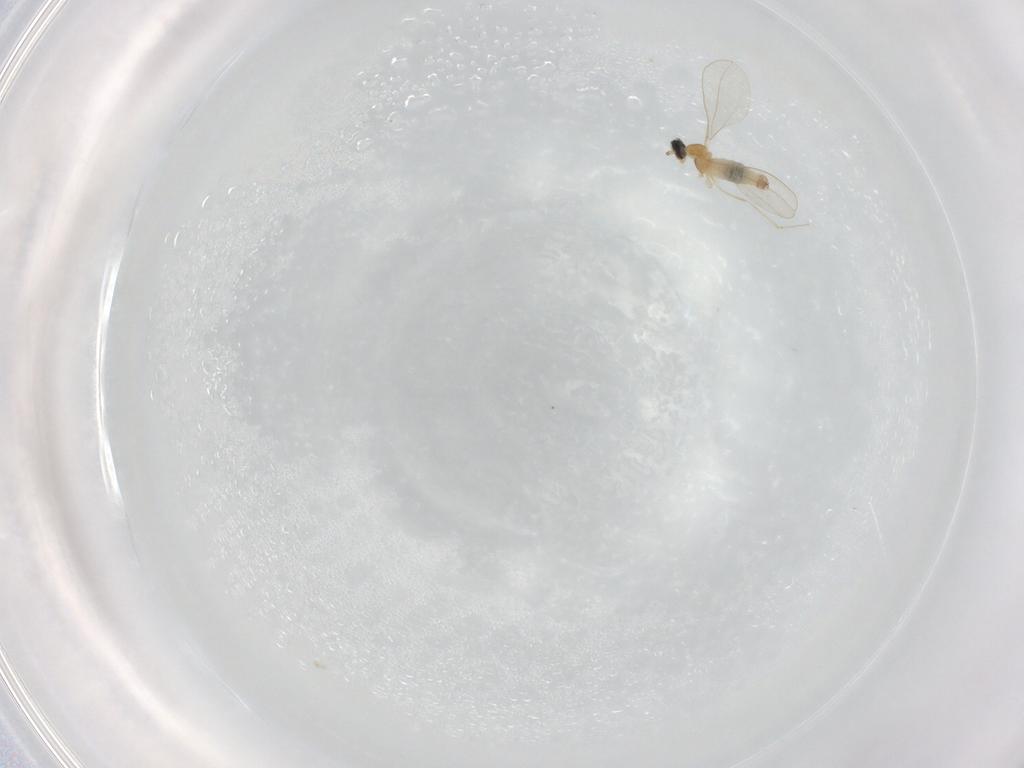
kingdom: Animalia
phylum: Arthropoda
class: Insecta
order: Diptera
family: Cecidomyiidae
